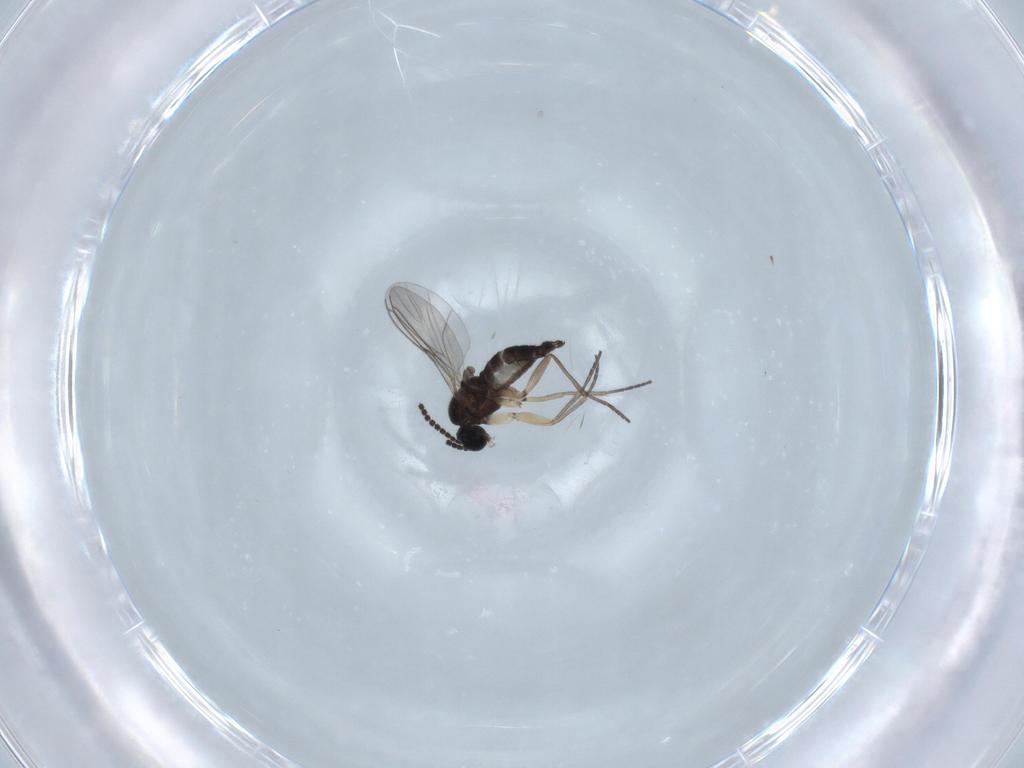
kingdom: Animalia
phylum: Arthropoda
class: Insecta
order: Diptera
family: Sciaridae
